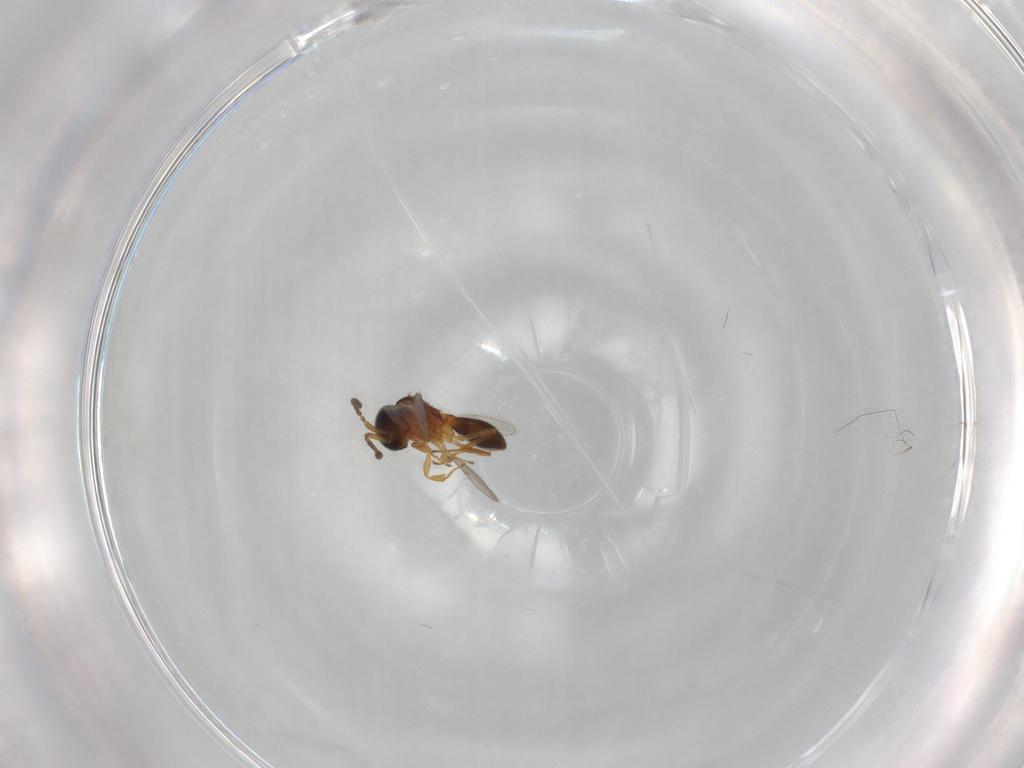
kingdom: Animalia
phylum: Arthropoda
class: Insecta
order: Hymenoptera
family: Scelionidae
